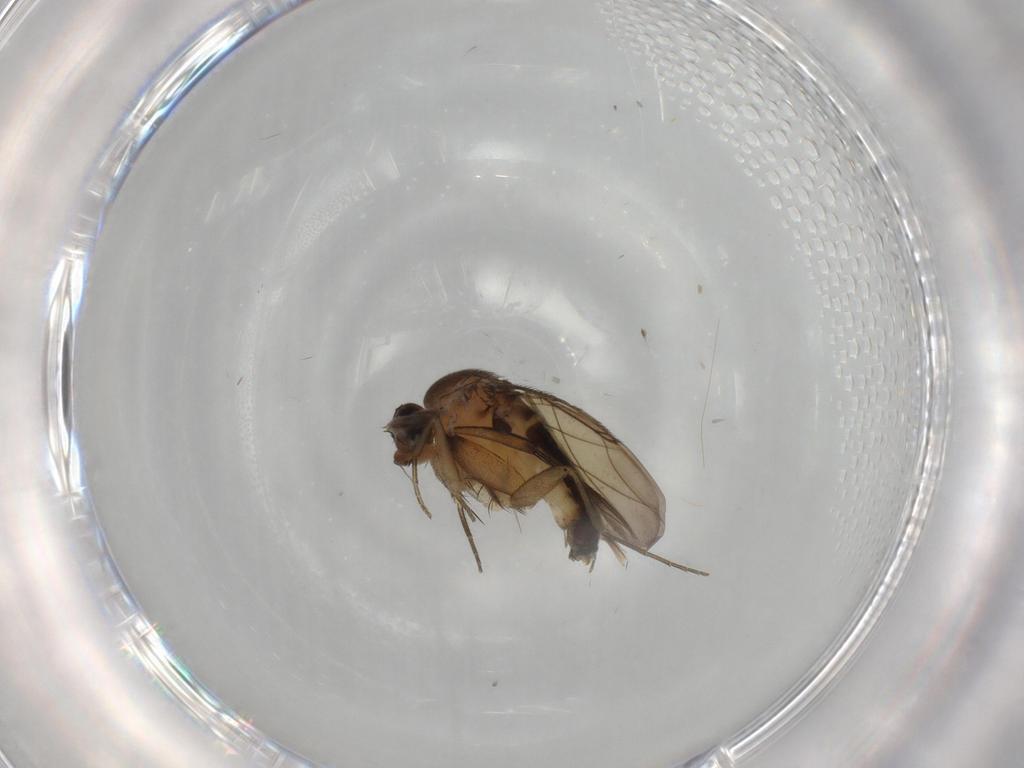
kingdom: Animalia
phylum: Arthropoda
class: Insecta
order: Diptera
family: Phoridae
